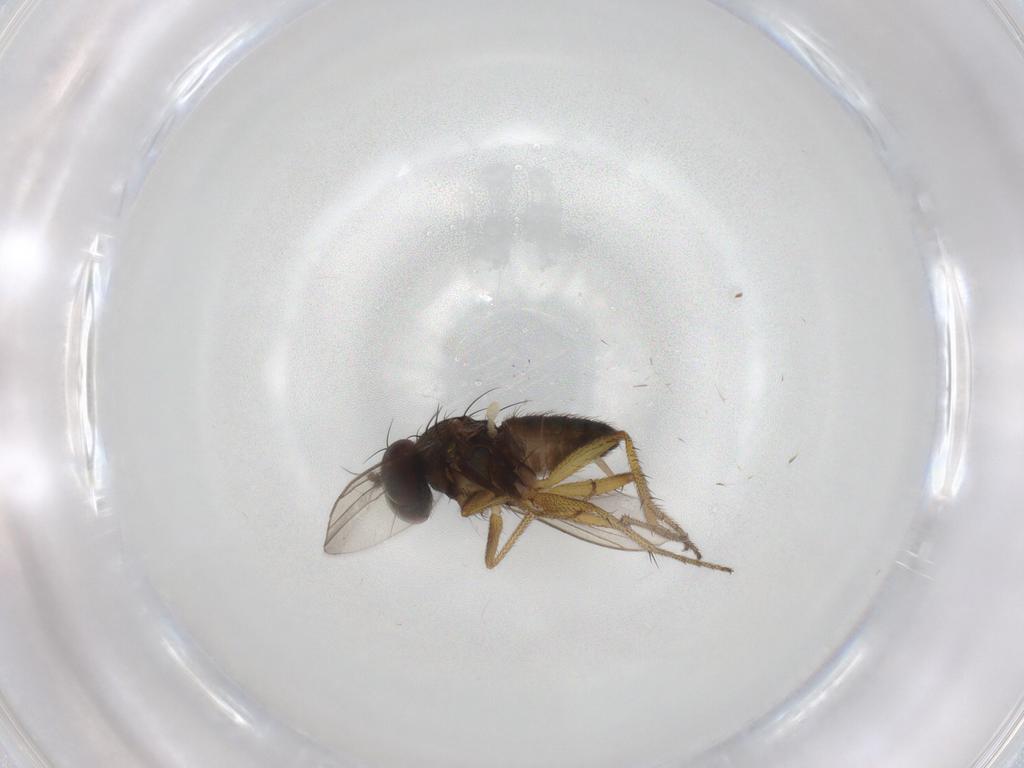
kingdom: Animalia
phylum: Arthropoda
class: Insecta
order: Diptera
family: Chironomidae
